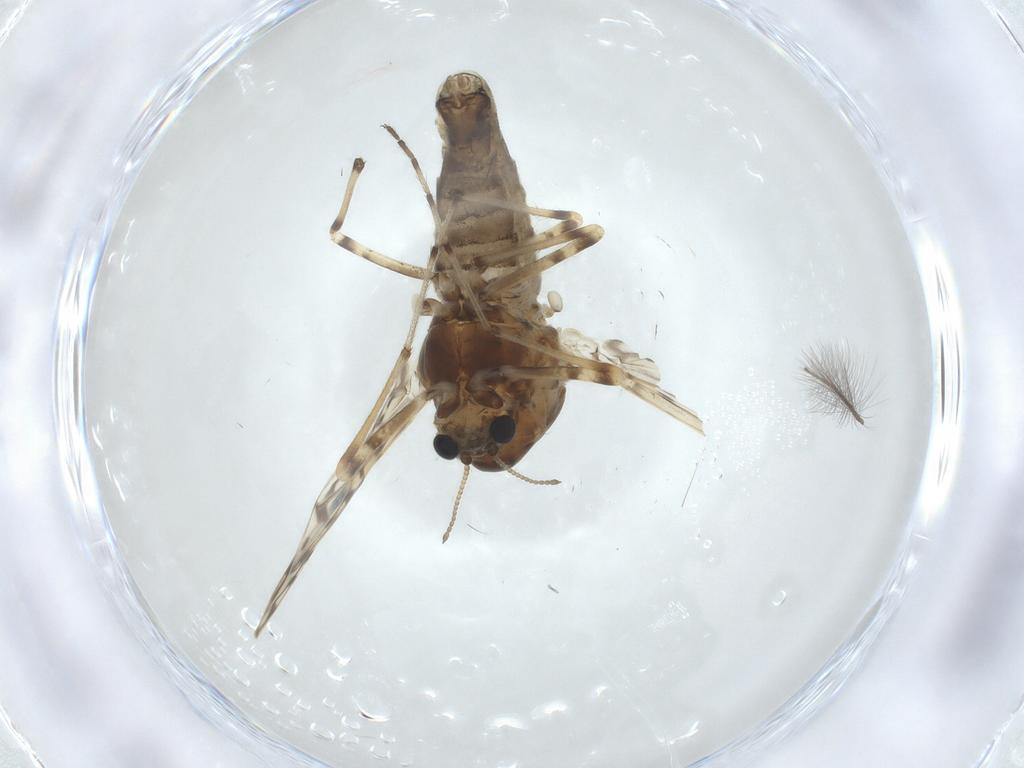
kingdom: Animalia
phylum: Arthropoda
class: Insecta
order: Diptera
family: Chironomidae
